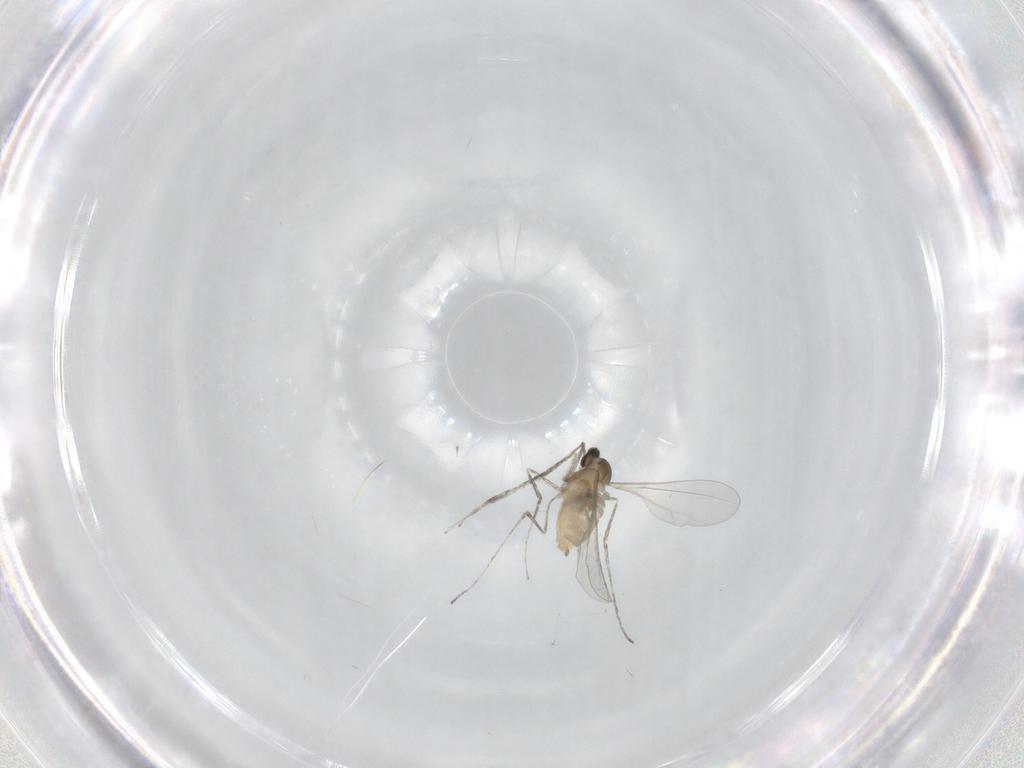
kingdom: Animalia
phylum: Arthropoda
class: Insecta
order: Diptera
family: Cecidomyiidae
